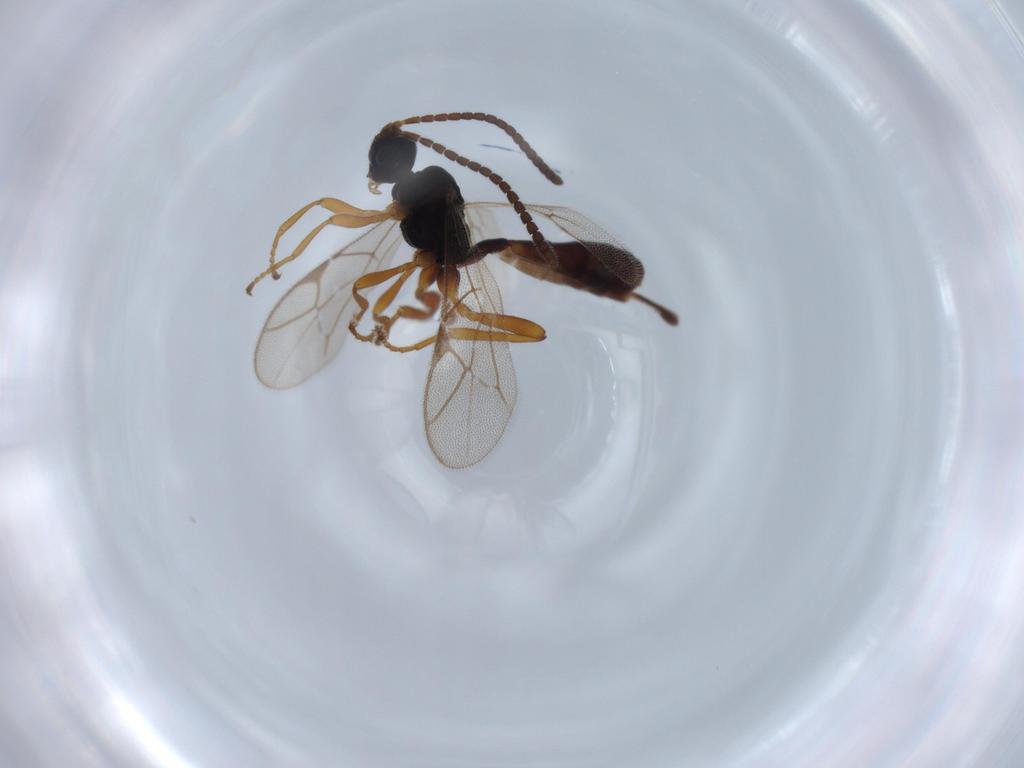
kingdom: Animalia
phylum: Arthropoda
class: Insecta
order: Hymenoptera
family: Ichneumonidae
